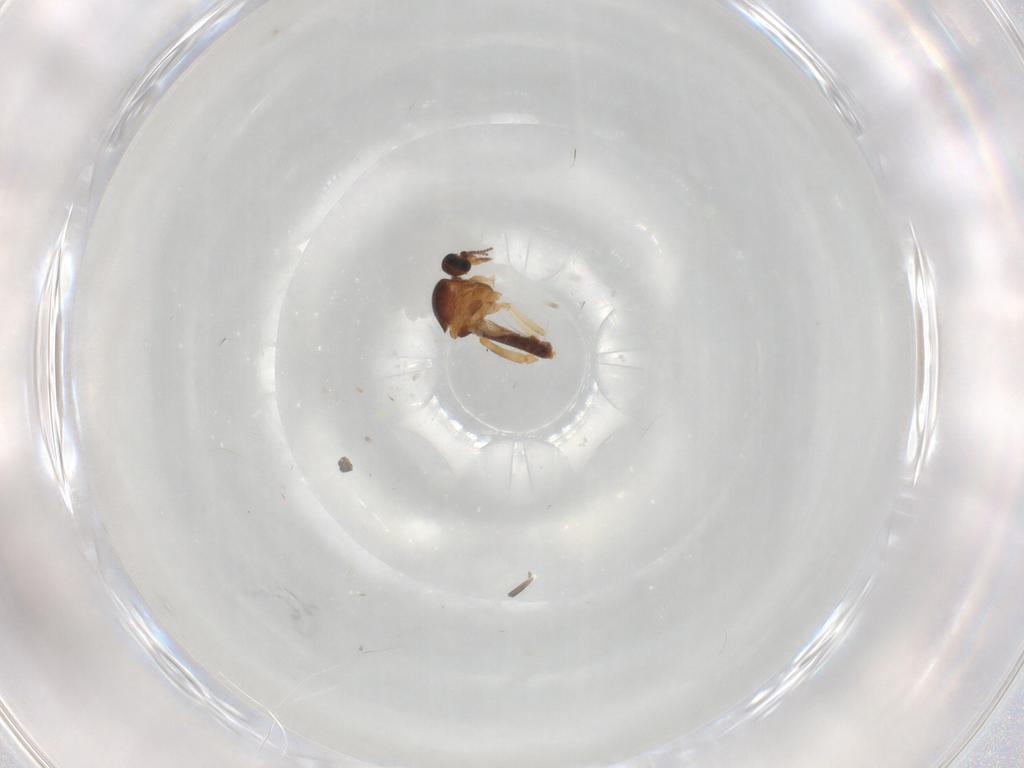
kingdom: Animalia
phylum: Arthropoda
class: Insecta
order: Diptera
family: Ceratopogonidae
